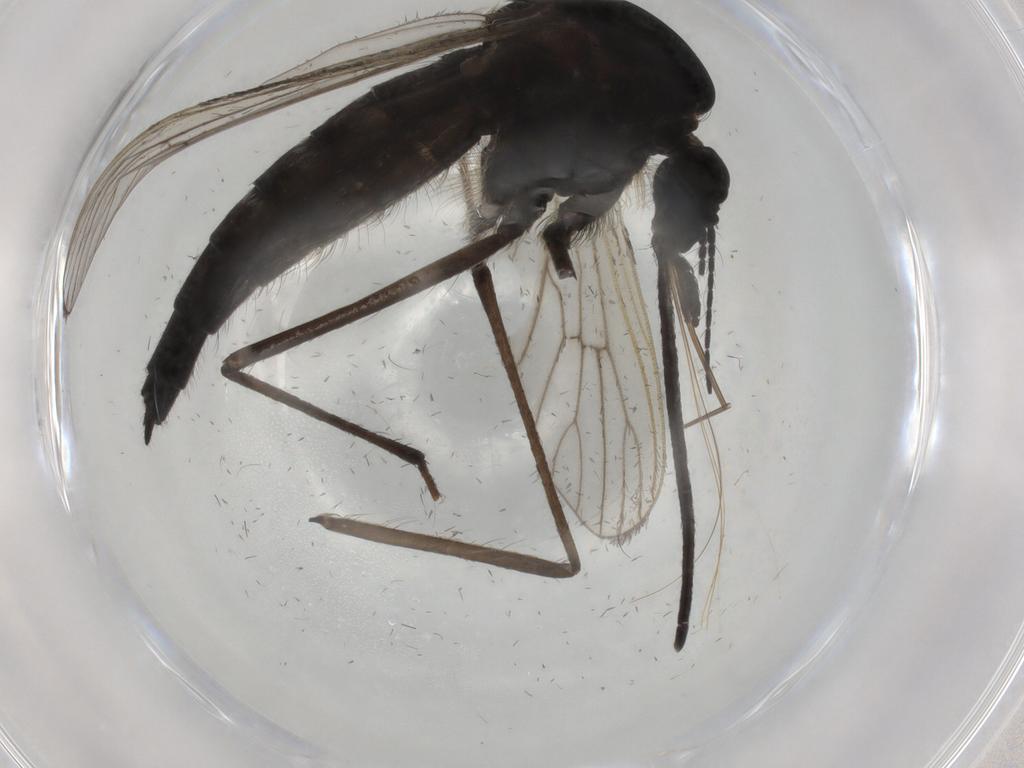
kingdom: Animalia
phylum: Arthropoda
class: Insecta
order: Diptera
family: Sciaridae
